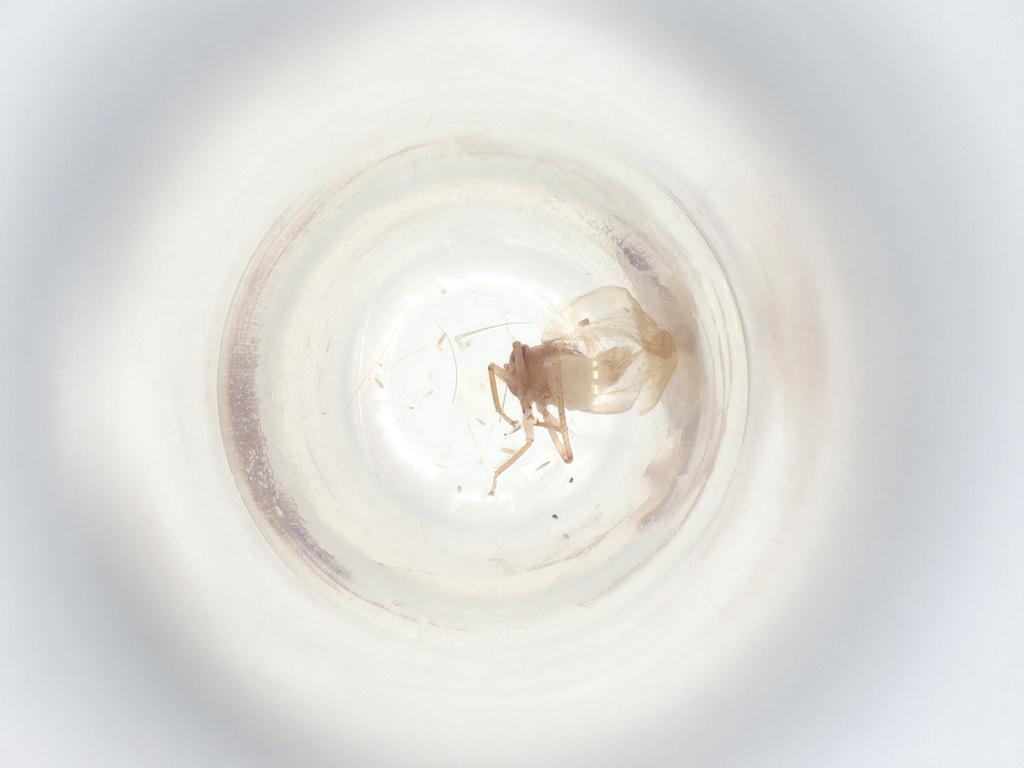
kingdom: Animalia
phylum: Arthropoda
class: Insecta
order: Hemiptera
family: Cicadellidae
